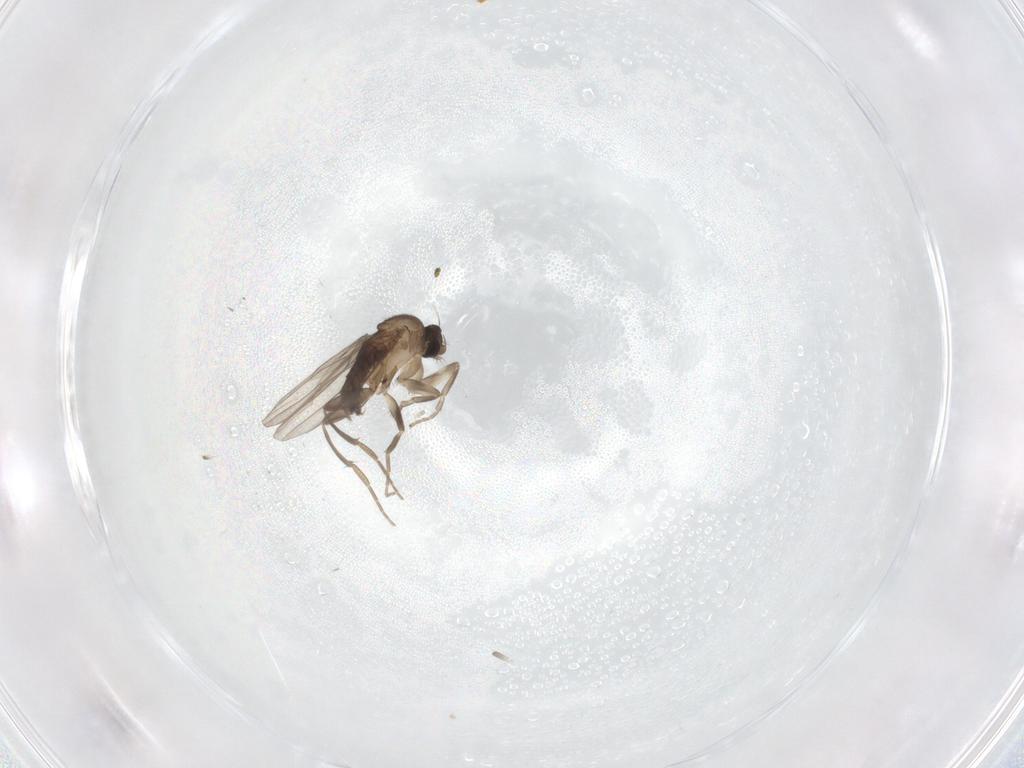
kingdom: Animalia
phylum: Arthropoda
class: Insecta
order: Diptera
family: Phoridae
